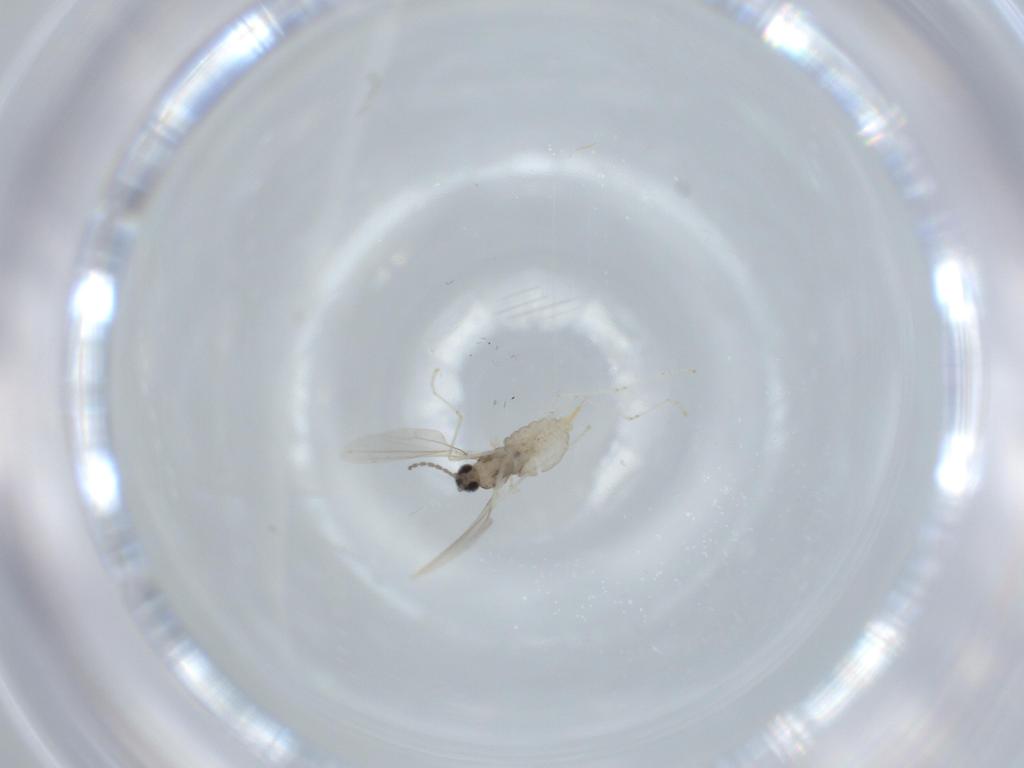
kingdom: Animalia
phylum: Arthropoda
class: Insecta
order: Diptera
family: Cecidomyiidae
